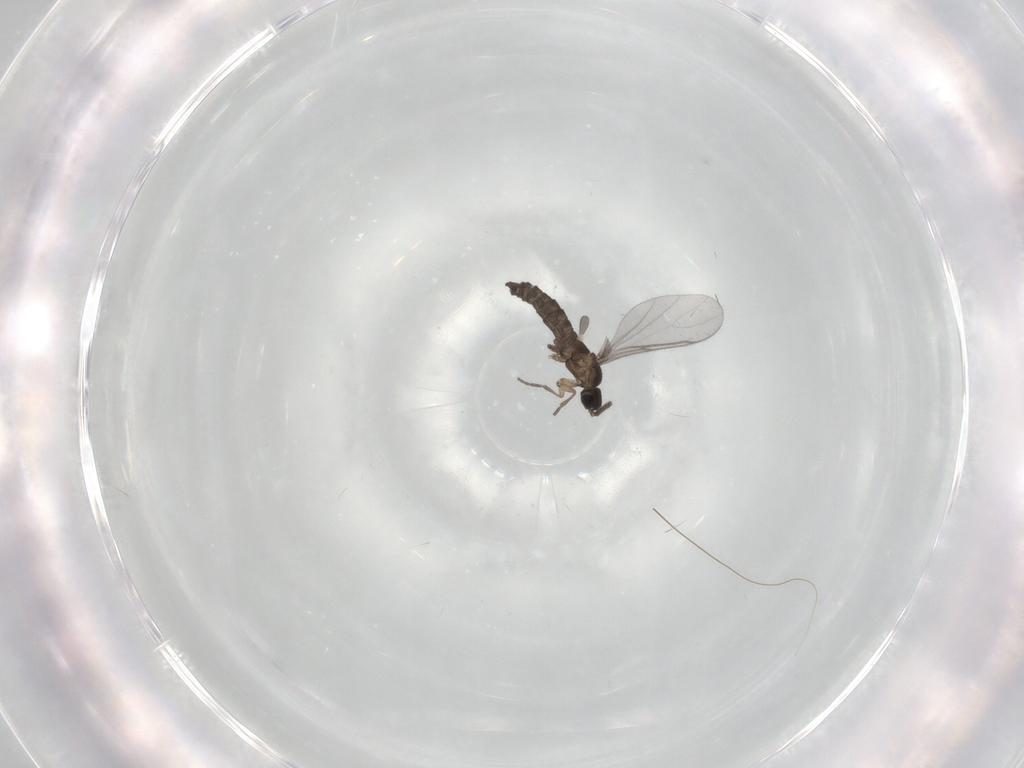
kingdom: Animalia
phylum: Arthropoda
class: Insecta
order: Diptera
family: Sciaridae
